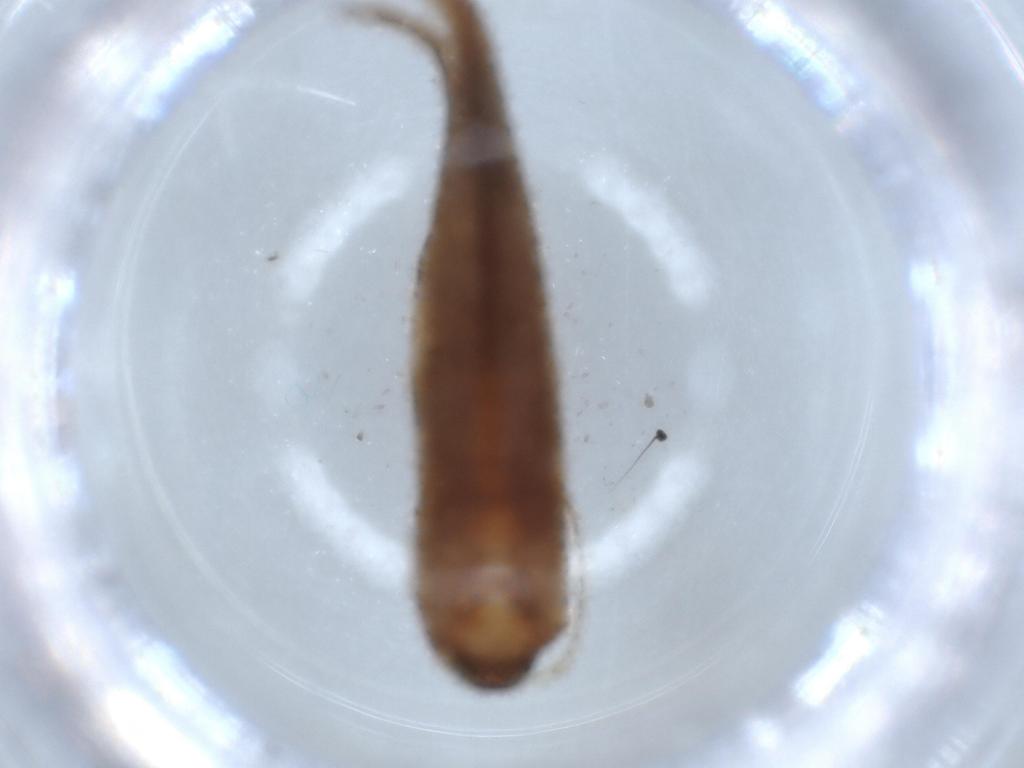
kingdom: Animalia
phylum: Arthropoda
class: Insecta
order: Lepidoptera
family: Stathmopodidae
